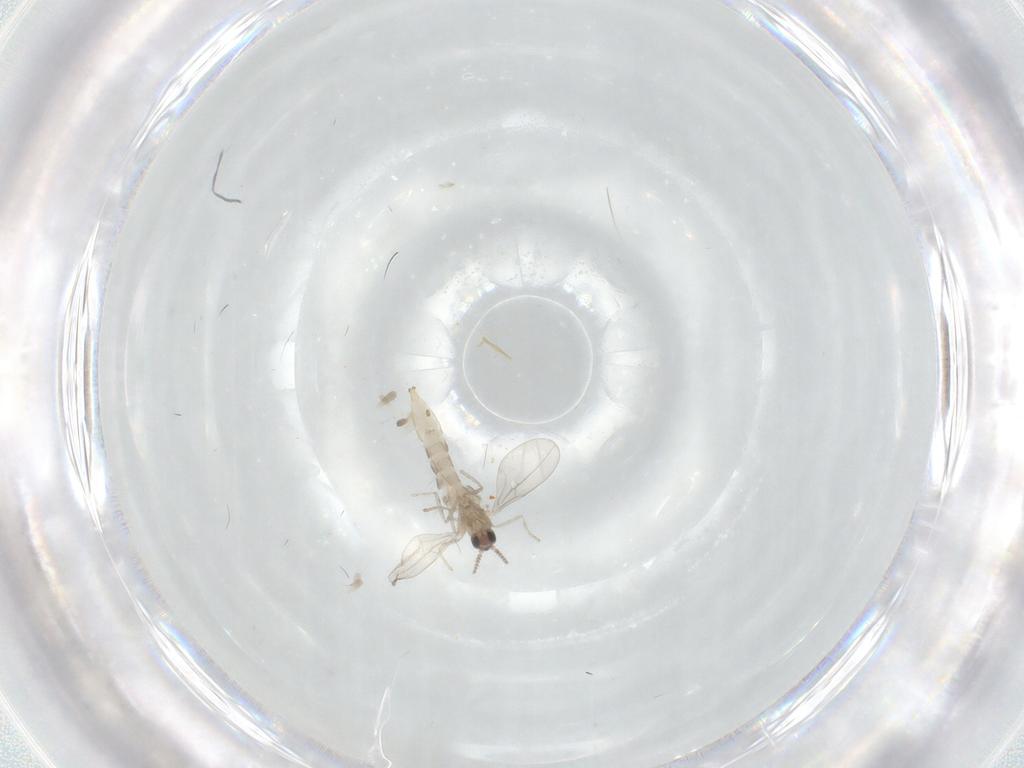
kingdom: Animalia
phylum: Arthropoda
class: Insecta
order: Diptera
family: Cecidomyiidae
